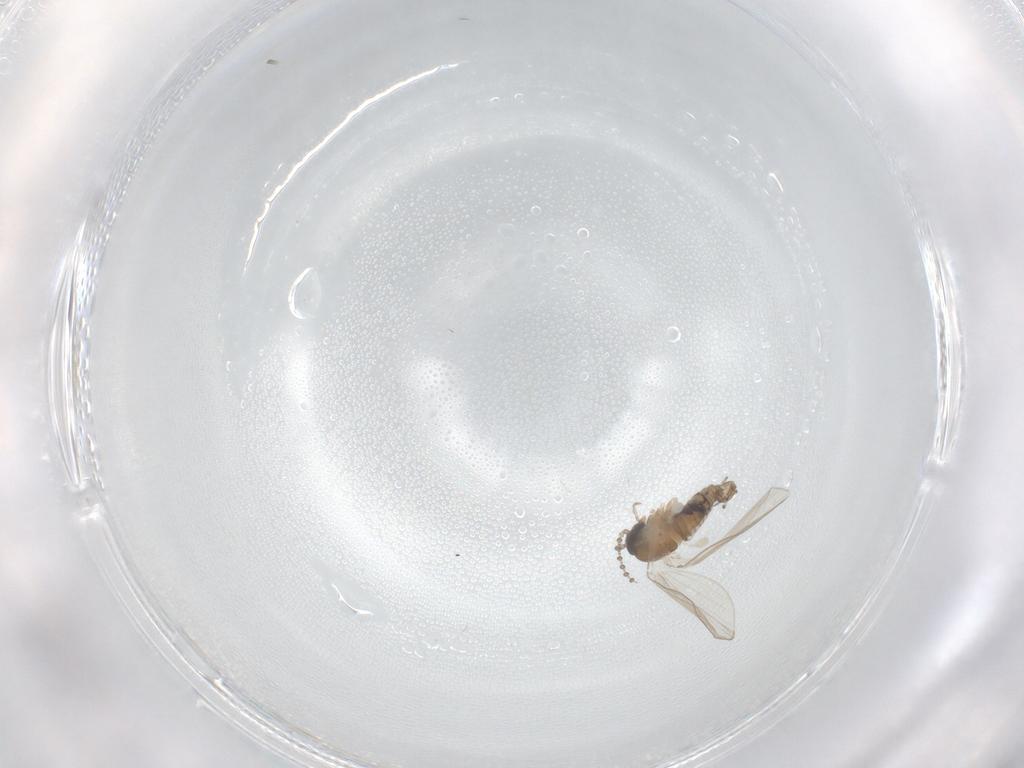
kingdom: Animalia
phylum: Arthropoda
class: Insecta
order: Diptera
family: Psychodidae
